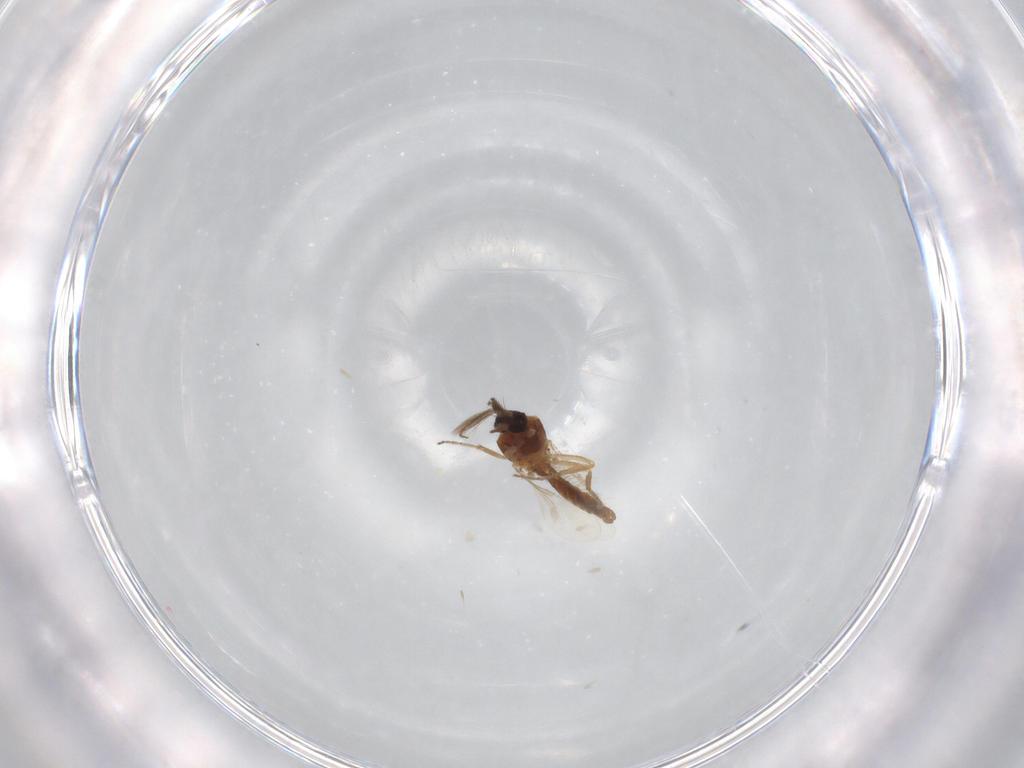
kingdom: Animalia
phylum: Arthropoda
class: Insecta
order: Diptera
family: Ceratopogonidae
